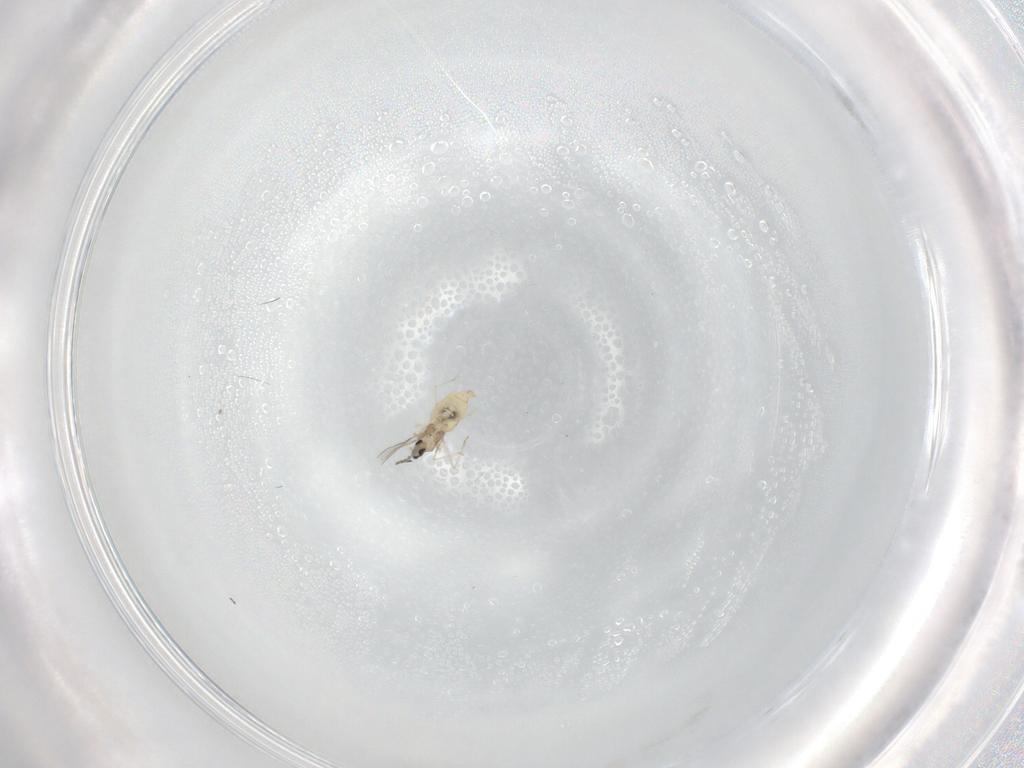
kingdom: Animalia
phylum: Arthropoda
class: Insecta
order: Diptera
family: Cecidomyiidae
